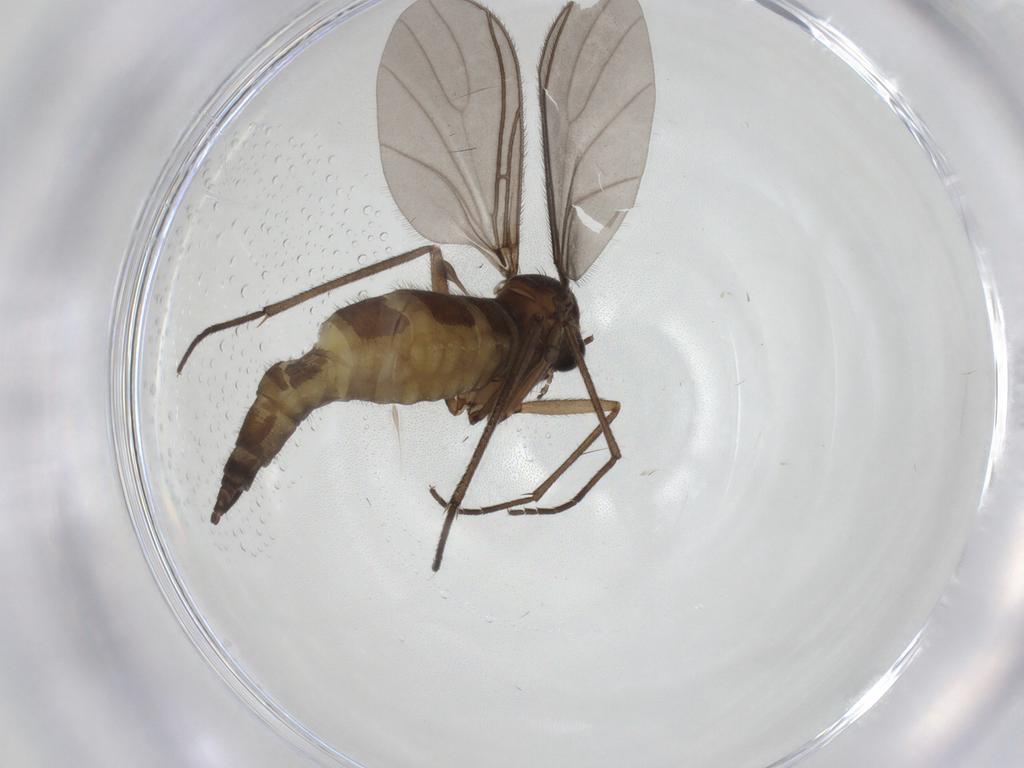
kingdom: Animalia
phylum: Arthropoda
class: Insecta
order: Diptera
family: Sciaridae
